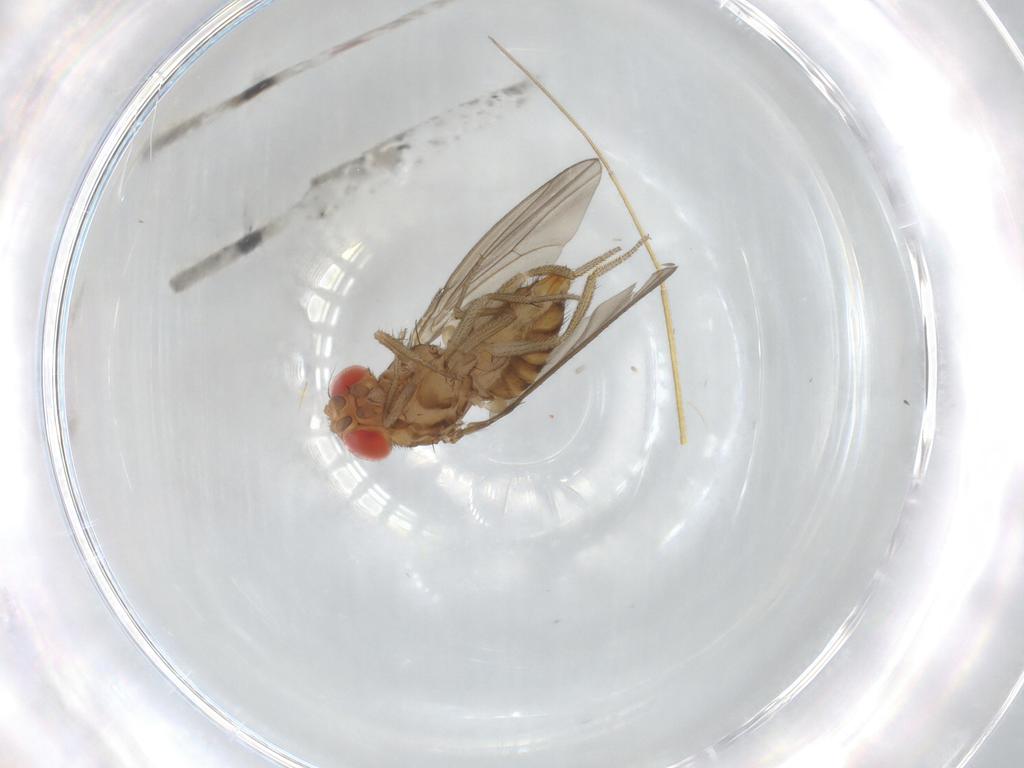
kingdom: Animalia
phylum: Arthropoda
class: Insecta
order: Diptera
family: Drosophilidae
